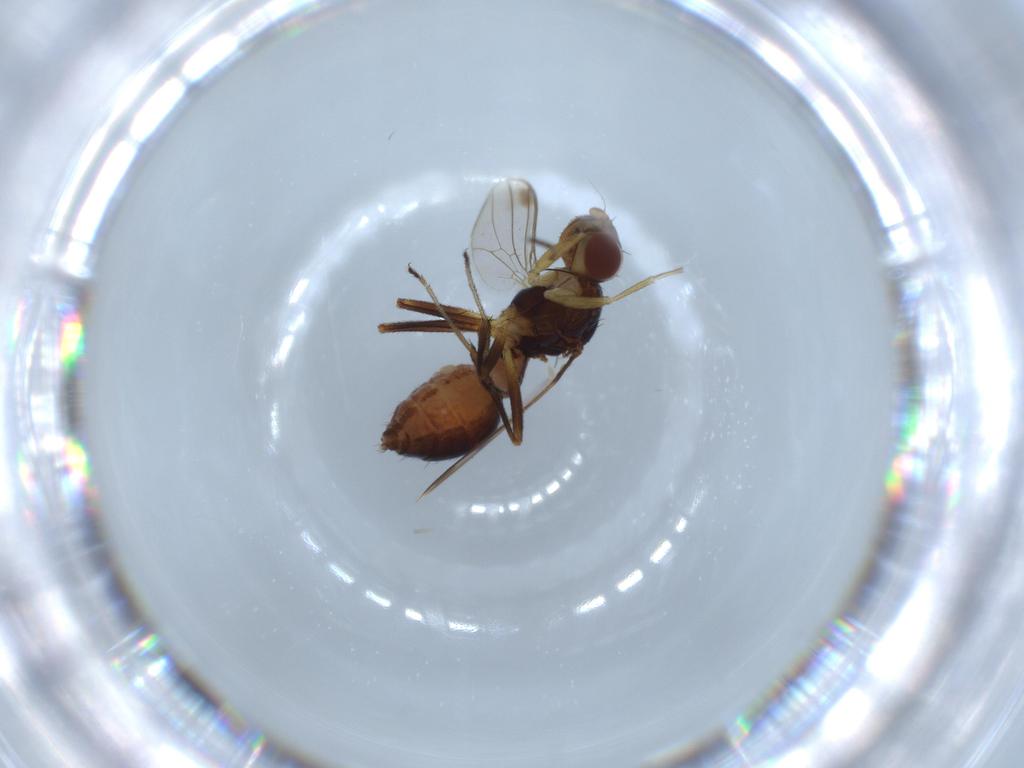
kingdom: Animalia
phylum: Arthropoda
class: Insecta
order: Diptera
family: Sepsidae
